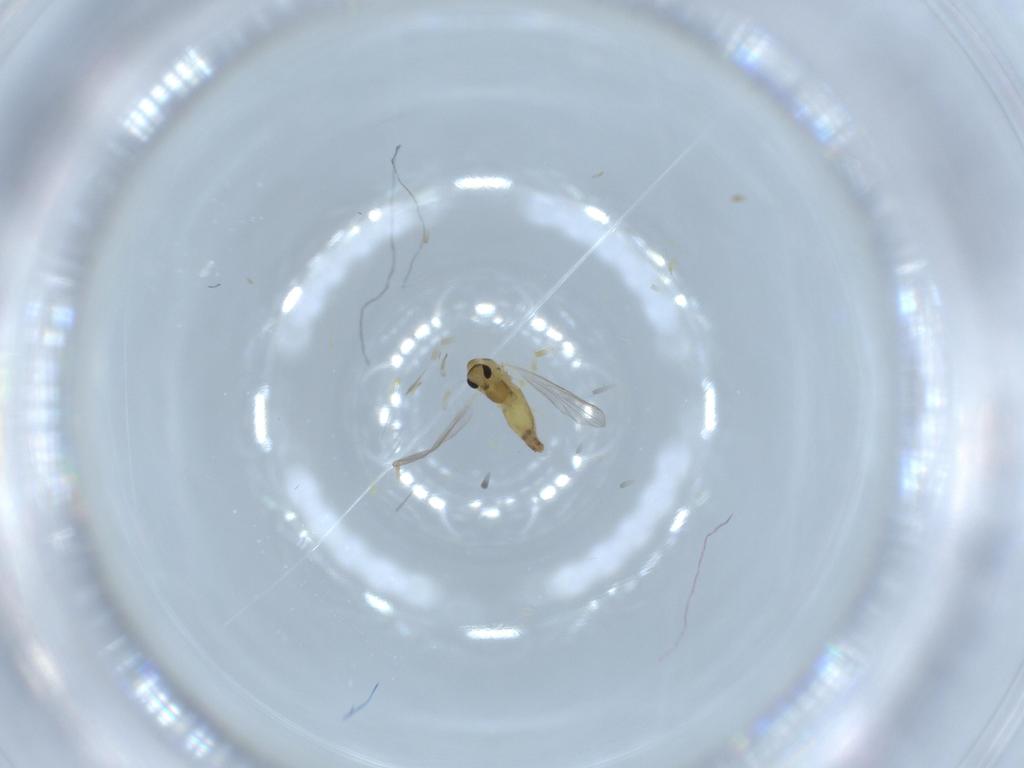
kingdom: Animalia
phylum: Arthropoda
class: Insecta
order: Diptera
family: Chironomidae
